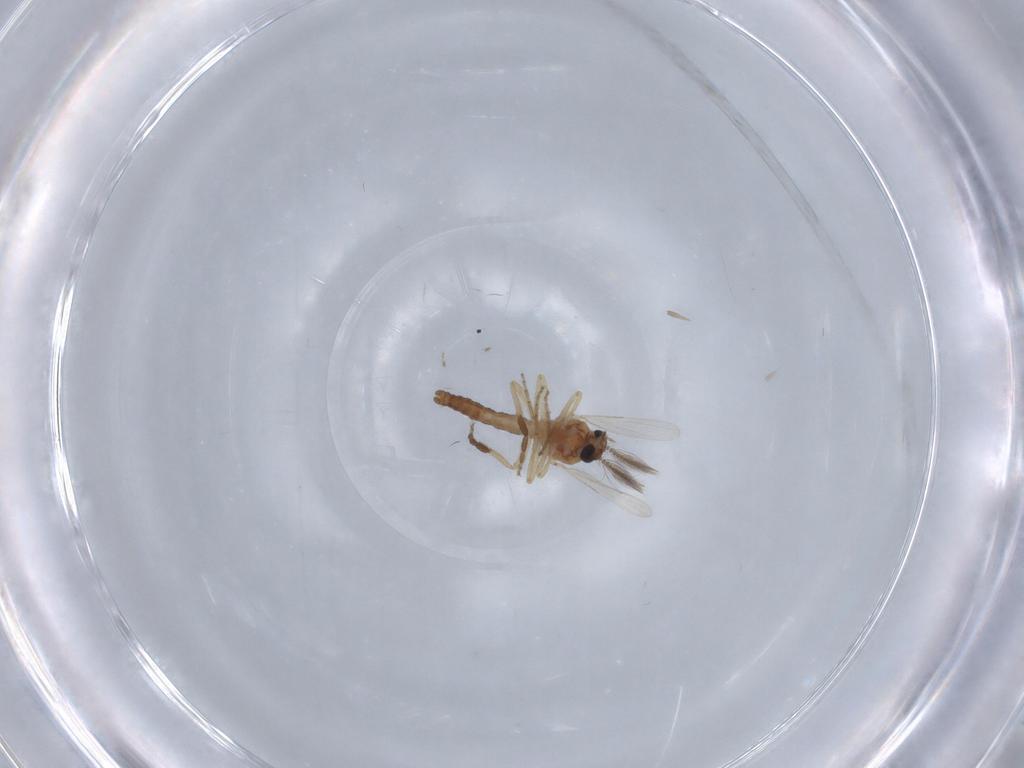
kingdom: Animalia
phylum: Arthropoda
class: Insecta
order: Diptera
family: Ceratopogonidae
